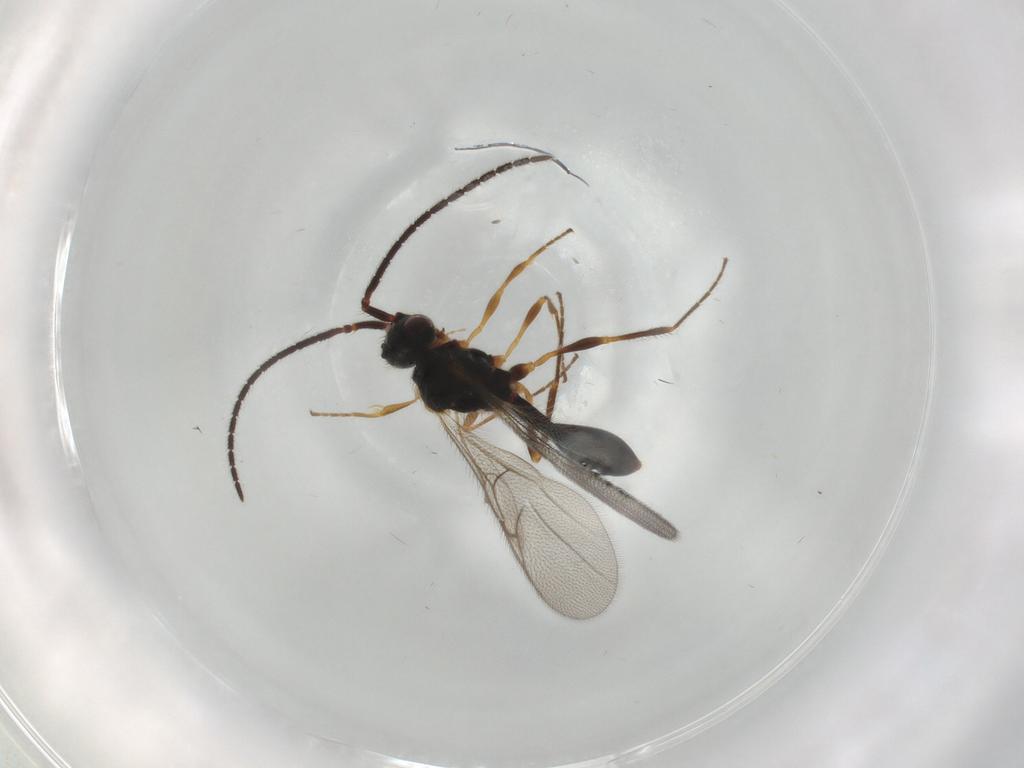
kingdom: Animalia
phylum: Arthropoda
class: Insecta
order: Hymenoptera
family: Diapriidae
